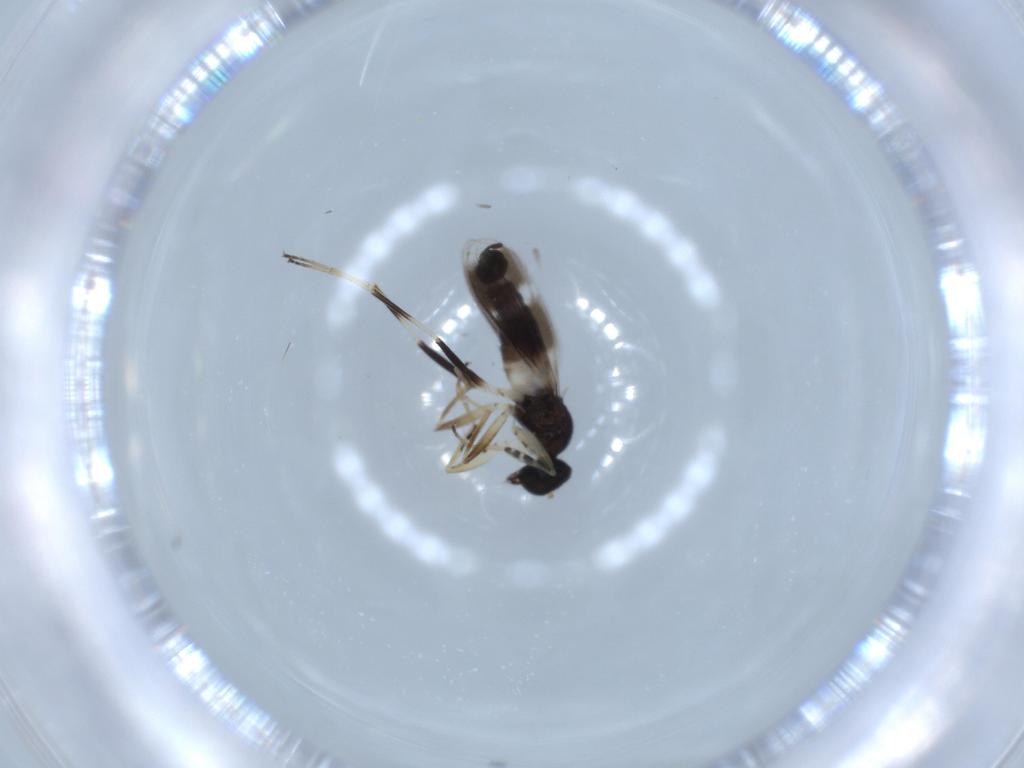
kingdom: Animalia
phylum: Arthropoda
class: Insecta
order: Diptera
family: Hybotidae
